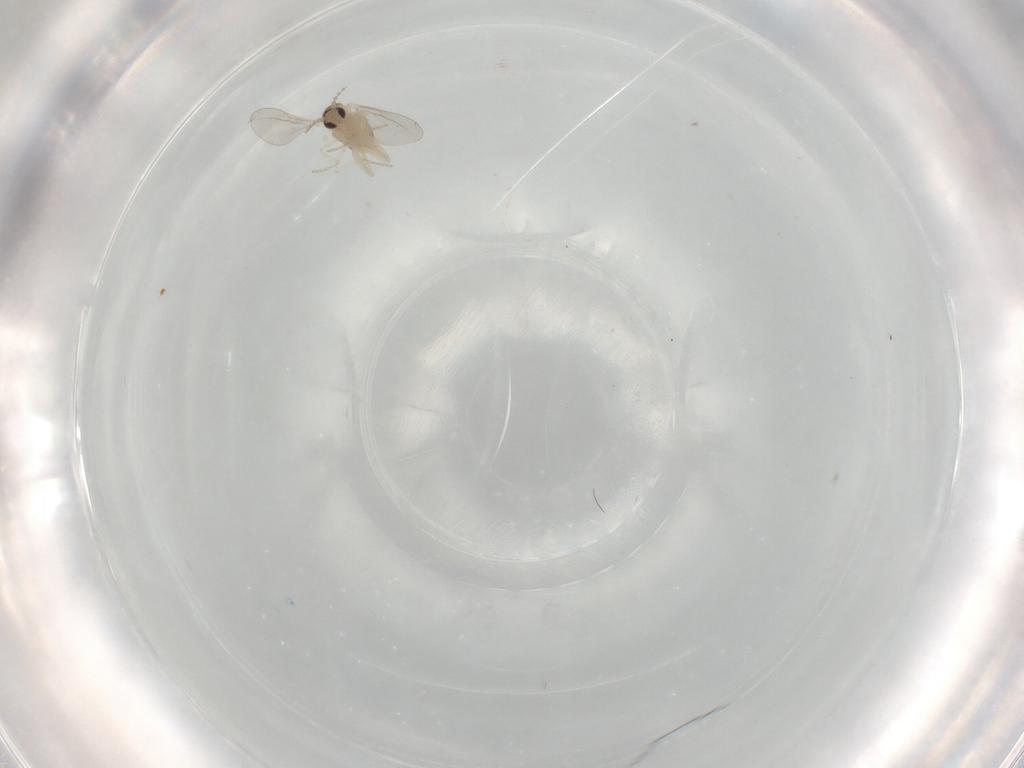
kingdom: Animalia
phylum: Arthropoda
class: Insecta
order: Diptera
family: Cecidomyiidae
